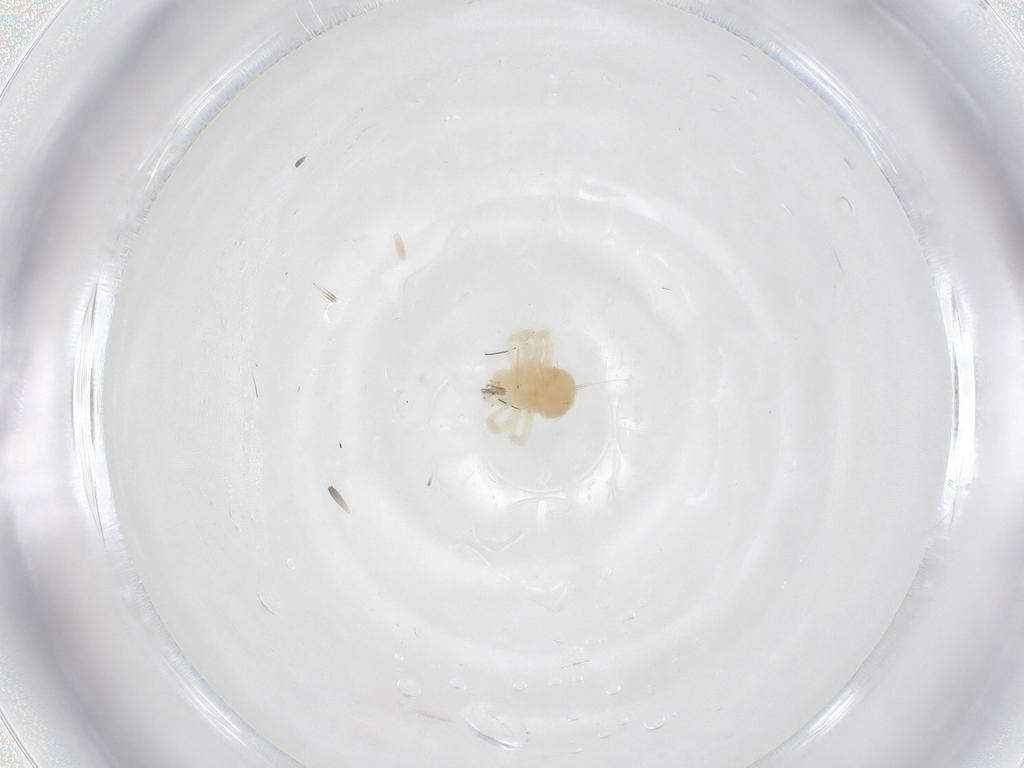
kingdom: Animalia
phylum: Arthropoda
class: Arachnida
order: Trombidiformes
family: Anystidae
